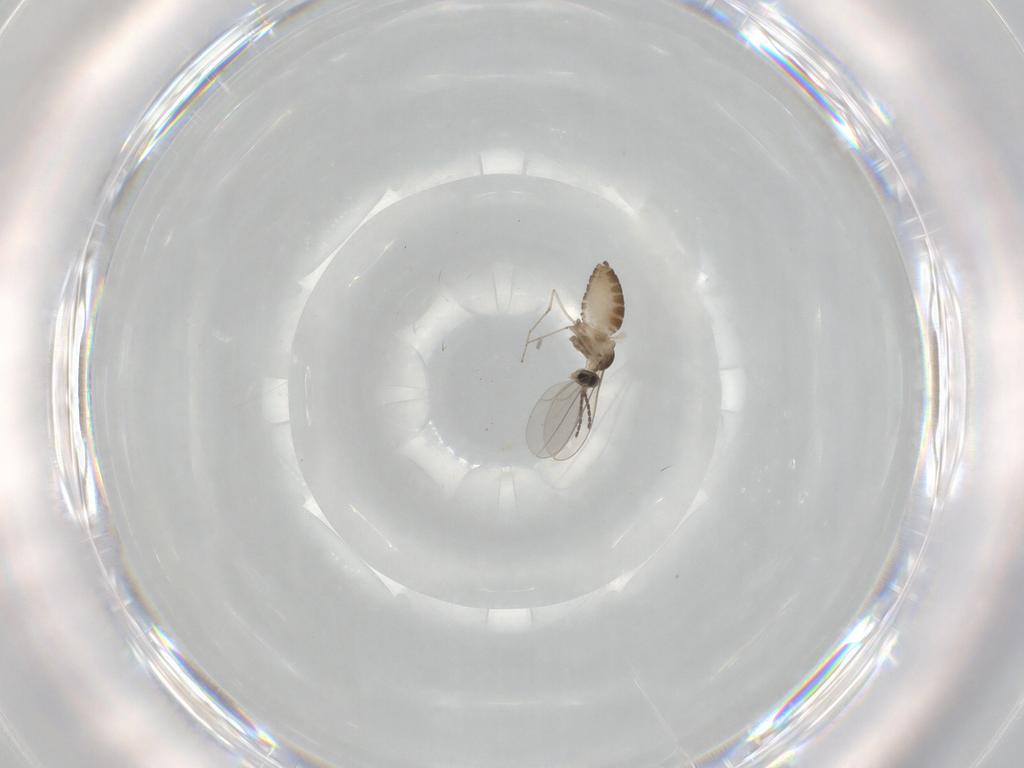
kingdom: Animalia
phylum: Arthropoda
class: Insecta
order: Diptera
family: Cecidomyiidae
